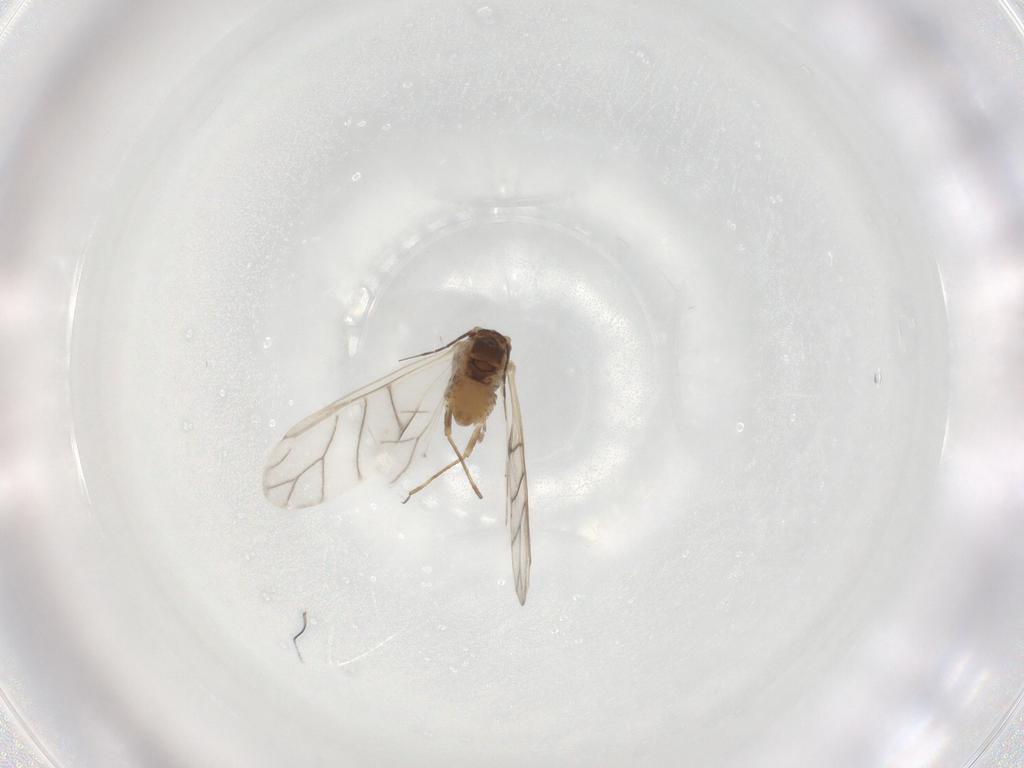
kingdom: Animalia
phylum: Arthropoda
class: Insecta
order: Hemiptera
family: Aphididae
